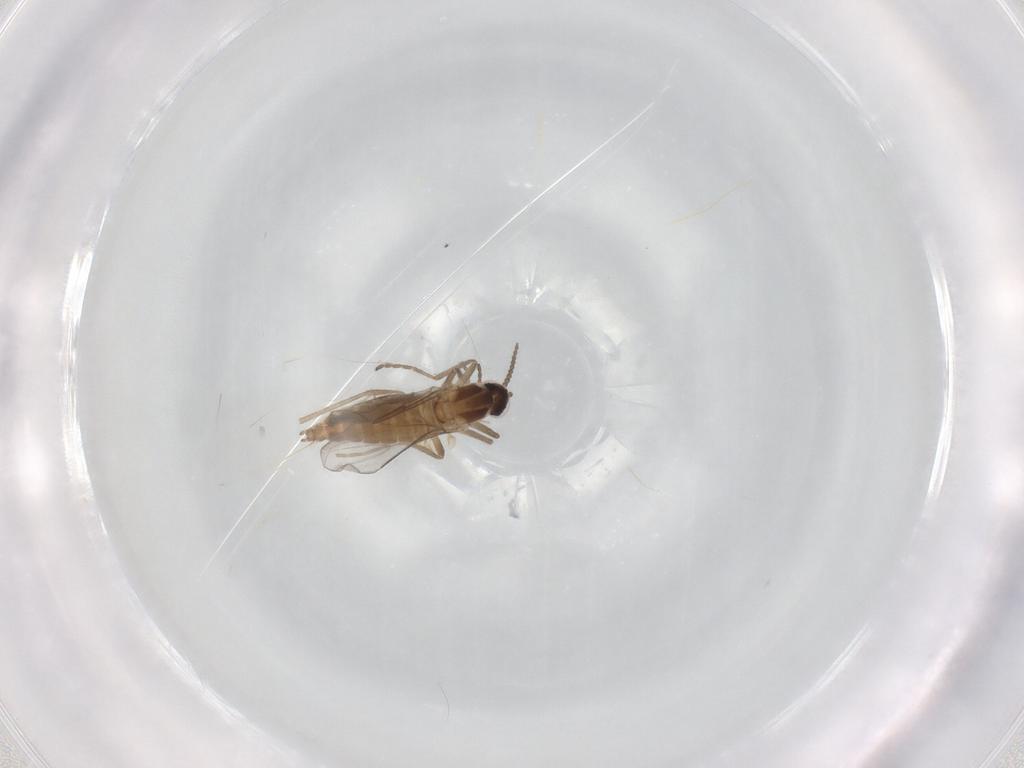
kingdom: Animalia
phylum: Arthropoda
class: Insecta
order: Diptera
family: Cecidomyiidae
